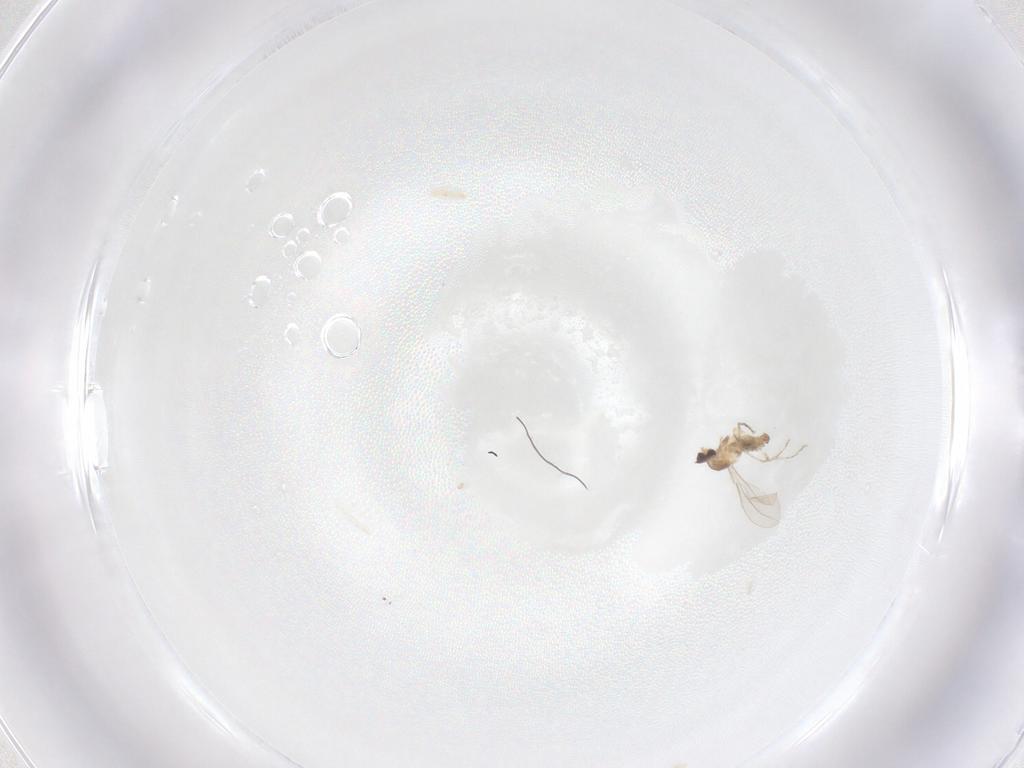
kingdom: Animalia
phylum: Arthropoda
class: Insecta
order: Diptera
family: Cecidomyiidae
